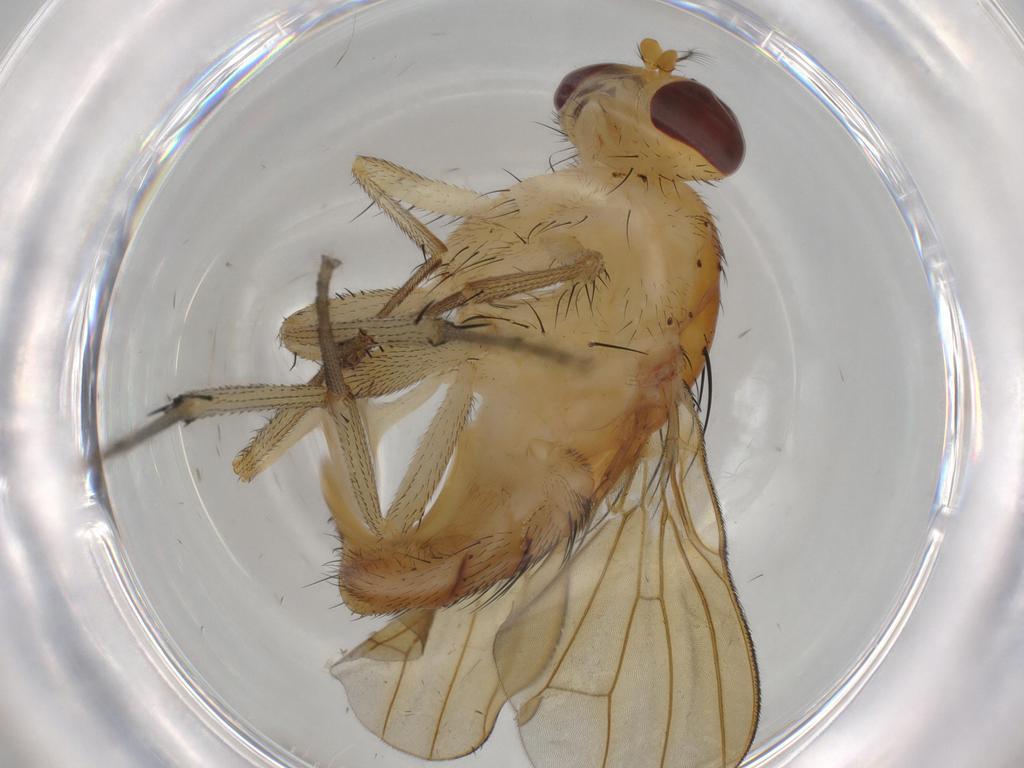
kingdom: Animalia
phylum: Arthropoda
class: Insecta
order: Diptera
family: Cecidomyiidae
